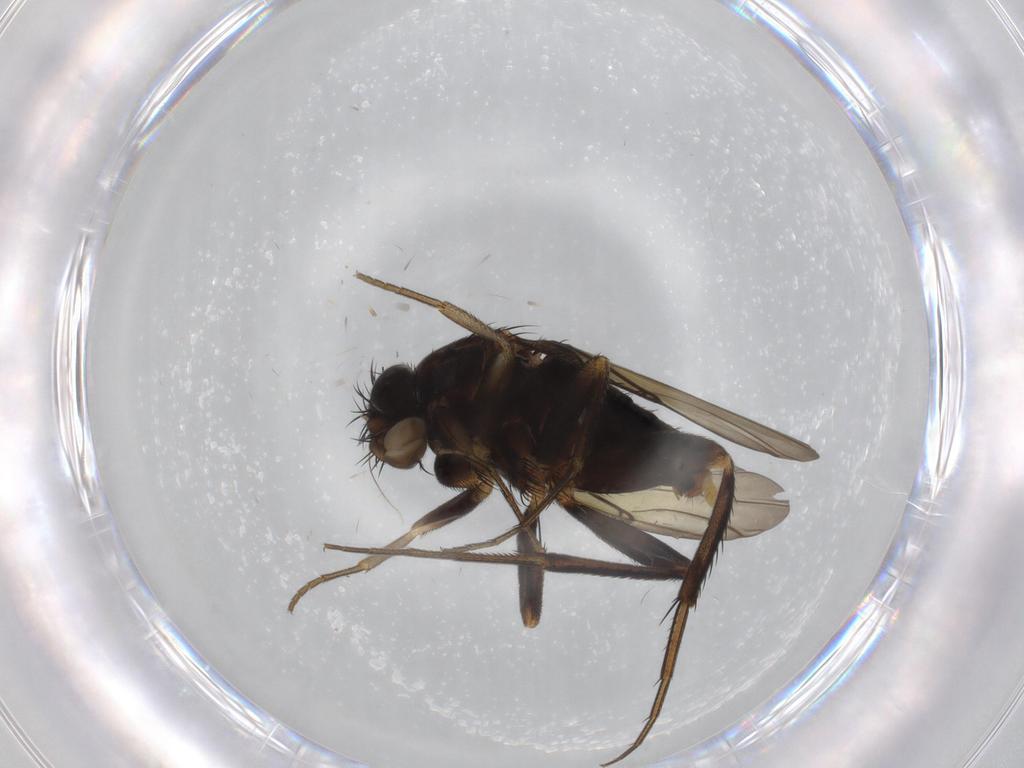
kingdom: Animalia
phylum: Arthropoda
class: Insecta
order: Diptera
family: Phoridae
